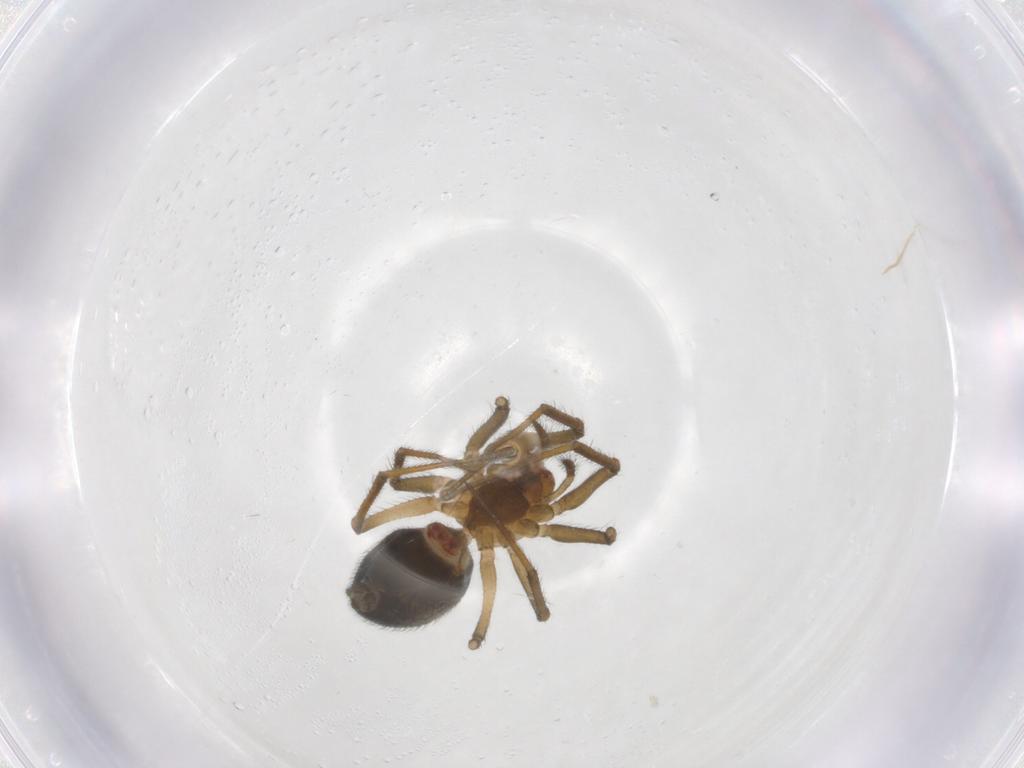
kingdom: Animalia
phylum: Arthropoda
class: Arachnida
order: Araneae
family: Linyphiidae
